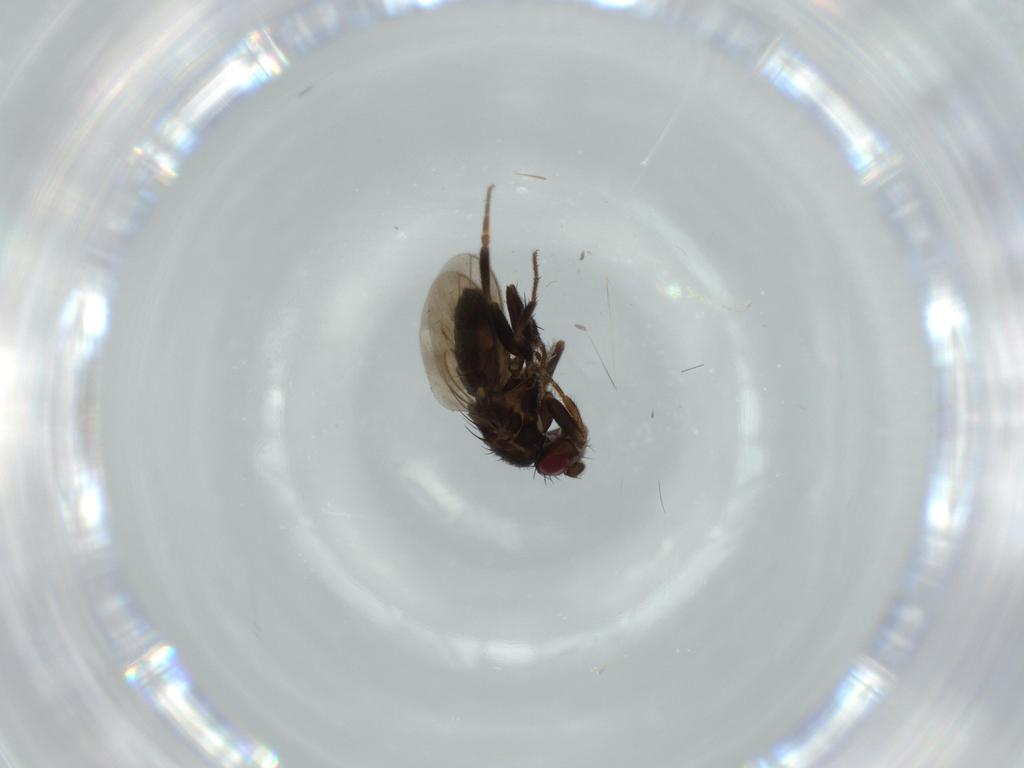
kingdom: Animalia
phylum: Arthropoda
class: Insecta
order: Diptera
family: Sphaeroceridae
